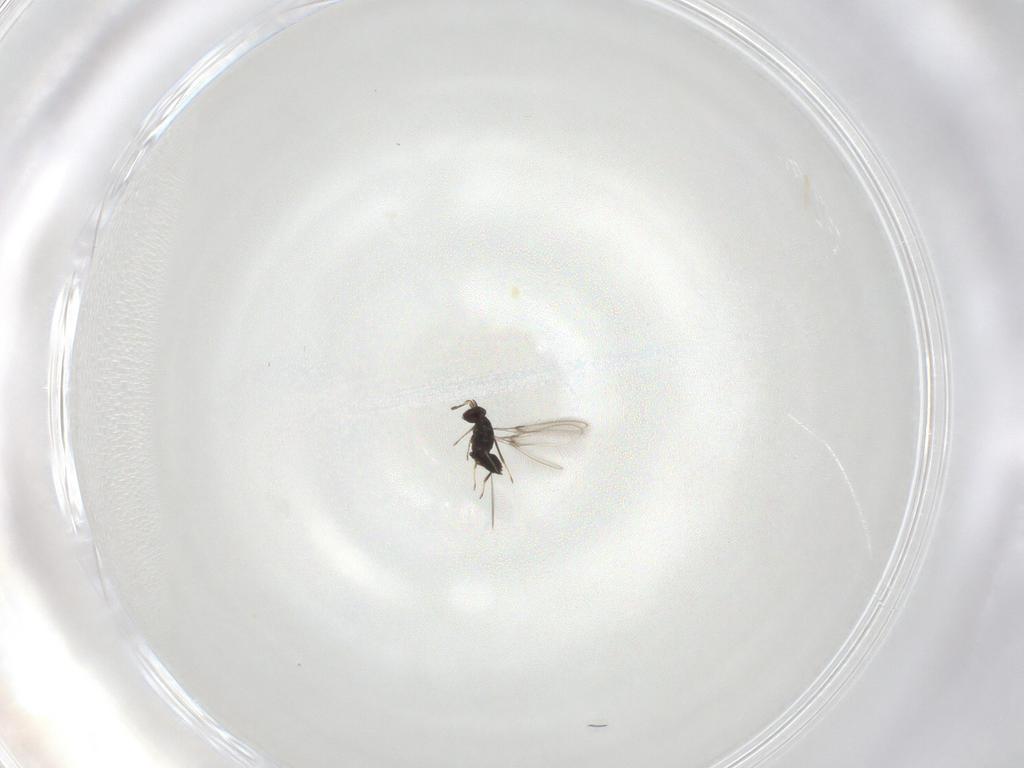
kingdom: Animalia
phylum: Arthropoda
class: Insecta
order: Hymenoptera
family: Mymaridae
